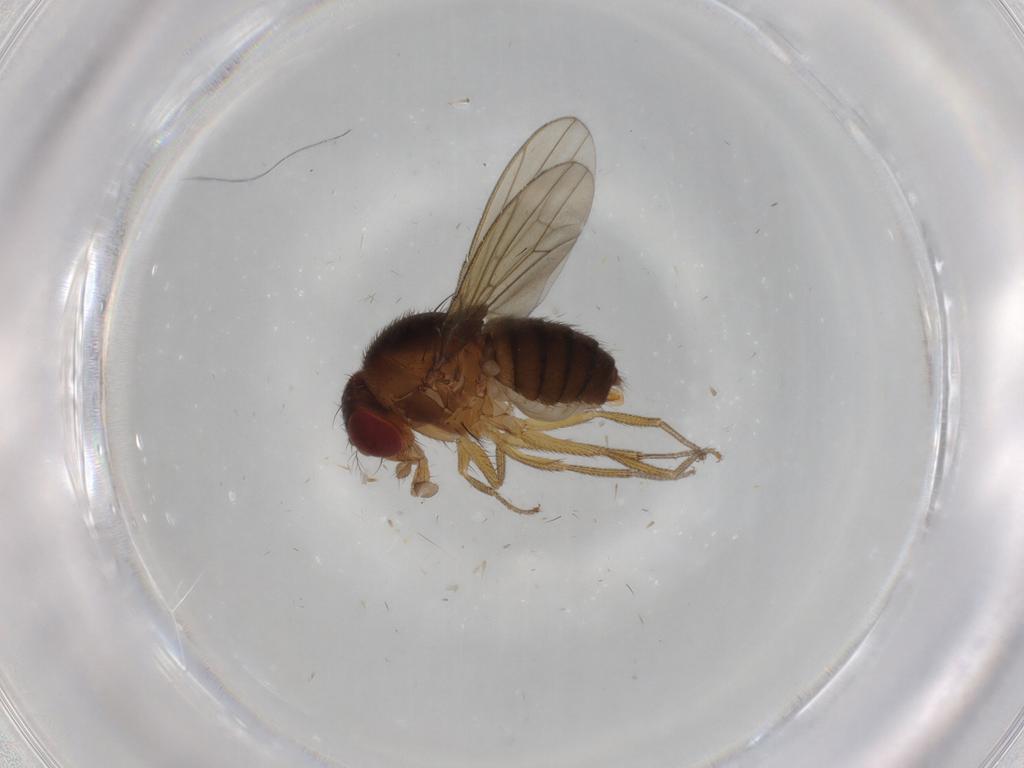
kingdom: Animalia
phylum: Arthropoda
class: Insecta
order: Diptera
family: Drosophilidae
